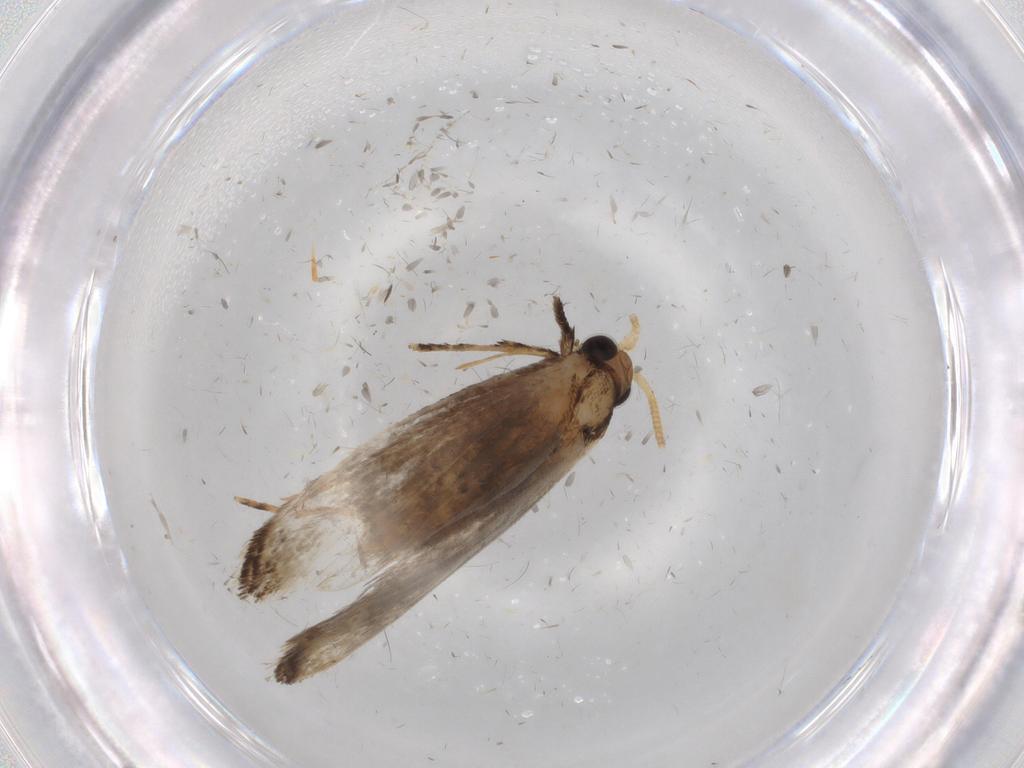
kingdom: Animalia
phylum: Arthropoda
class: Insecta
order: Lepidoptera
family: Tineidae
